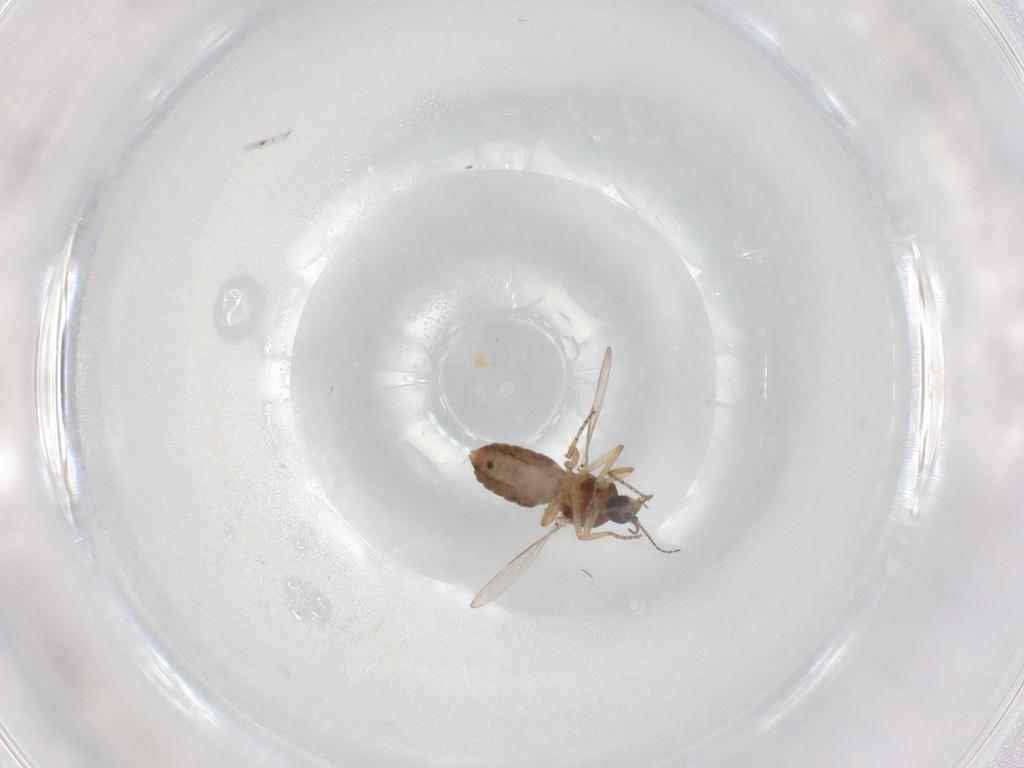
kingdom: Animalia
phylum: Arthropoda
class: Insecta
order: Diptera
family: Ceratopogonidae
